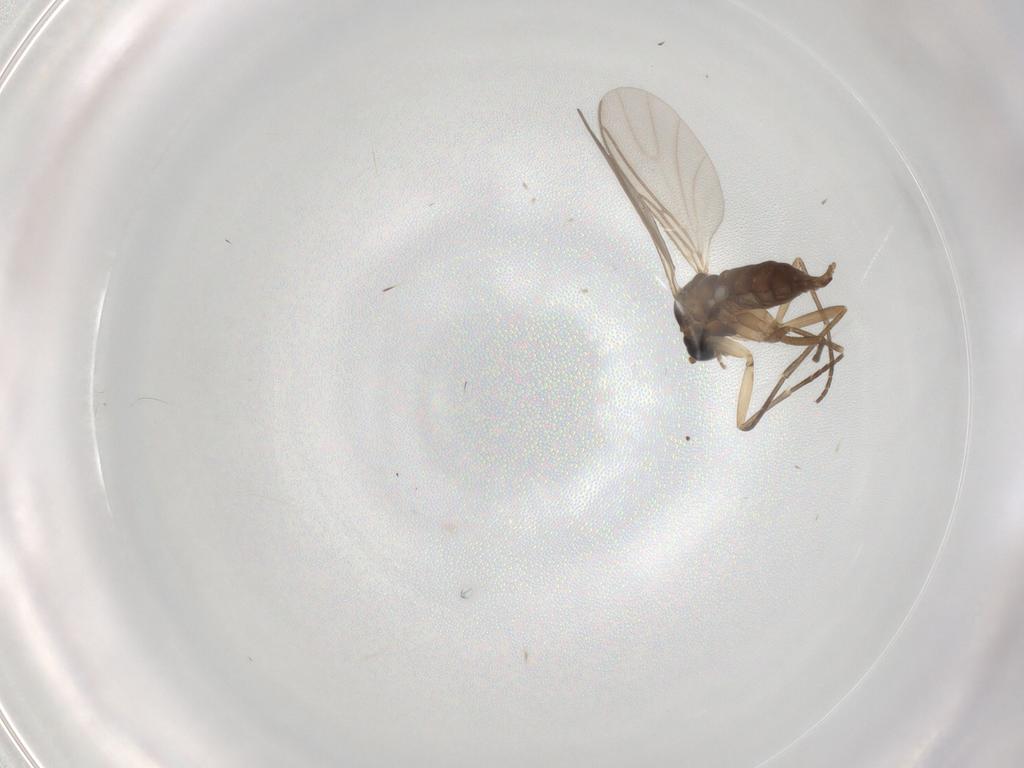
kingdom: Animalia
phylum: Arthropoda
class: Insecta
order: Diptera
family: Sciaridae
